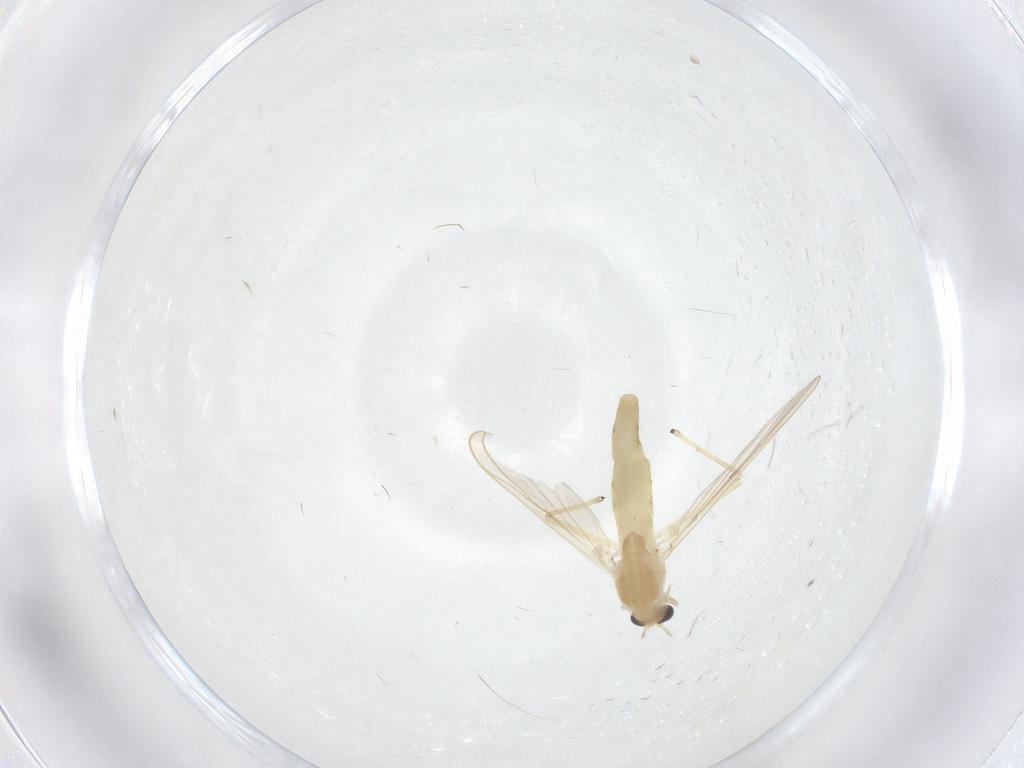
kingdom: Animalia
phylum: Arthropoda
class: Insecta
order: Diptera
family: Chironomidae
